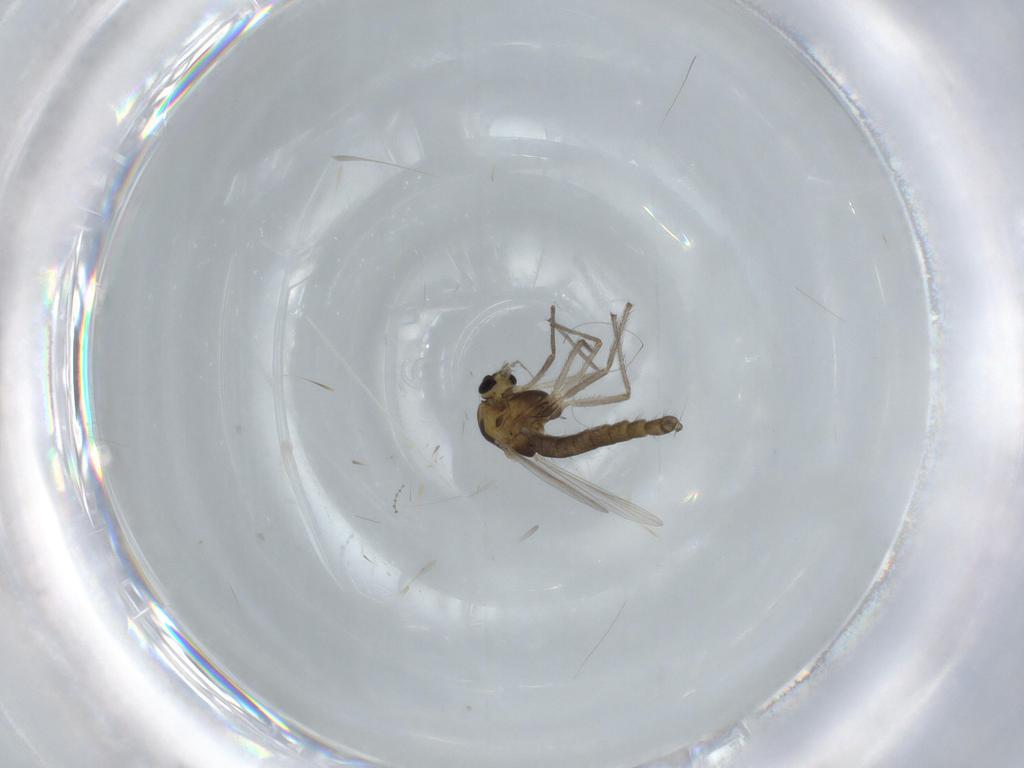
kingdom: Animalia
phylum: Arthropoda
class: Insecta
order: Diptera
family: Chironomidae
